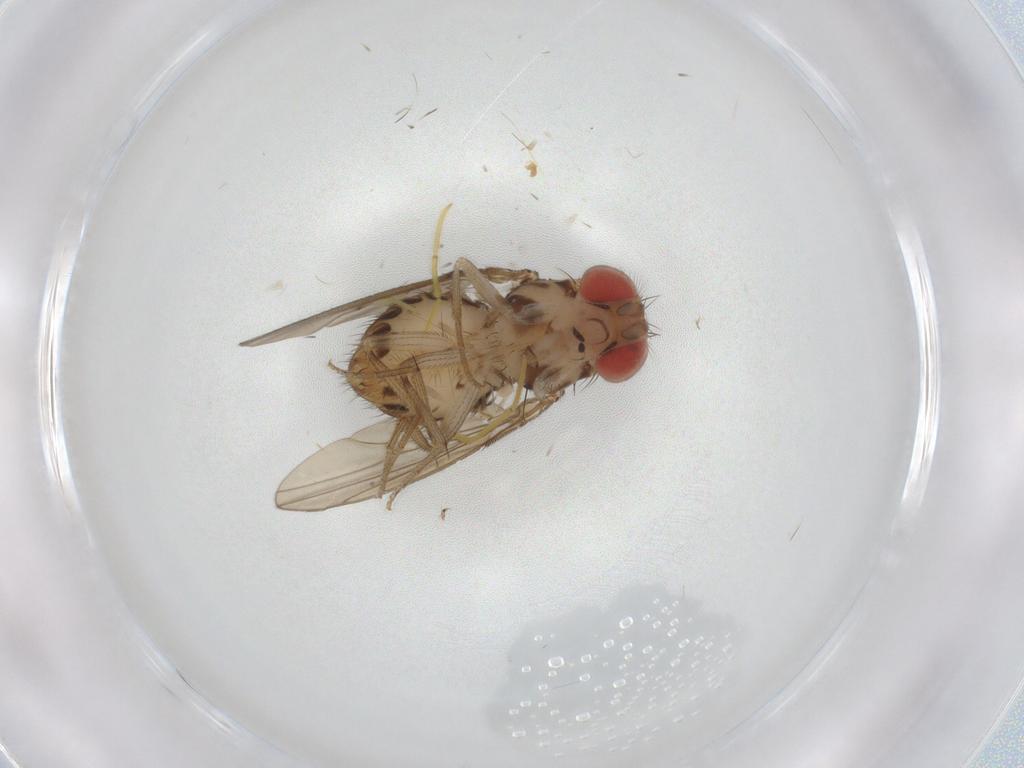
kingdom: Animalia
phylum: Arthropoda
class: Insecta
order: Diptera
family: Drosophilidae
